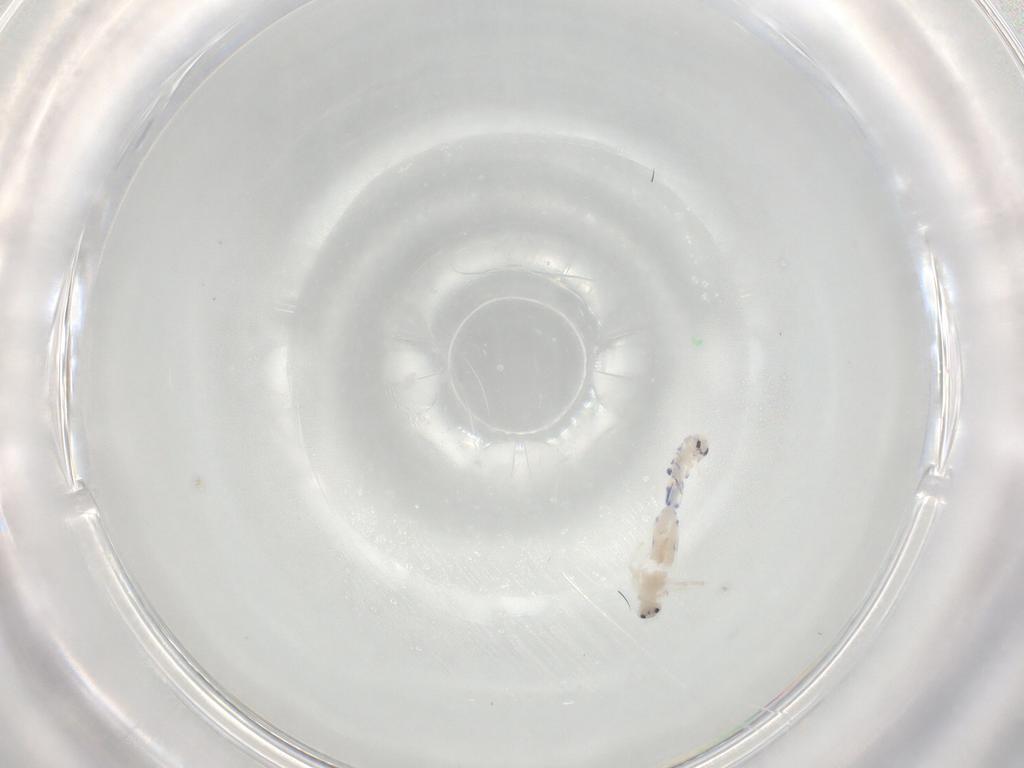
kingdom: Animalia
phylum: Arthropoda
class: Collembola
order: Entomobryomorpha
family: Entomobryidae
